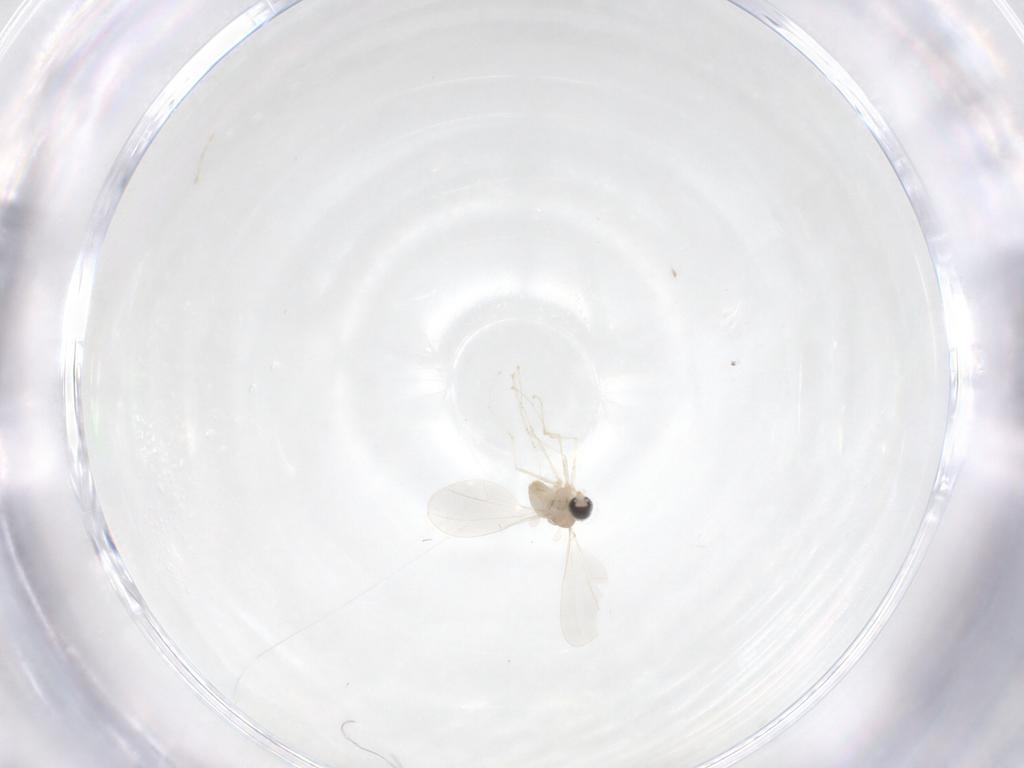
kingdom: Animalia
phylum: Arthropoda
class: Insecta
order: Diptera
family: Cecidomyiidae
